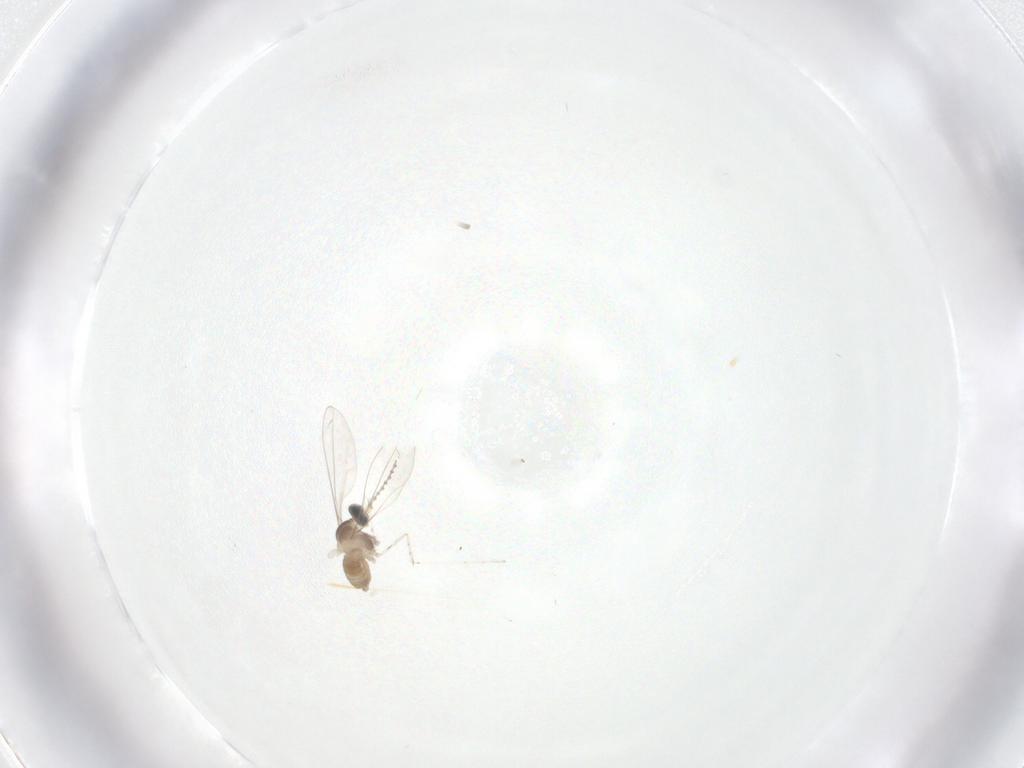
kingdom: Animalia
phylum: Arthropoda
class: Insecta
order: Diptera
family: Cecidomyiidae
